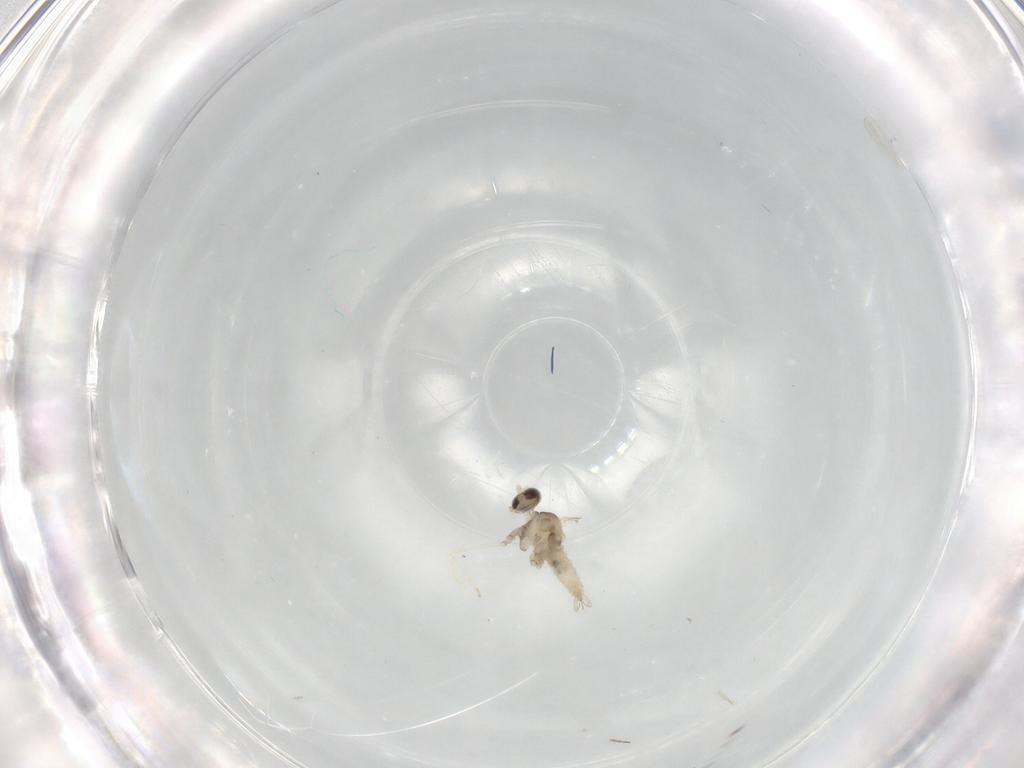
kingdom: Animalia
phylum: Arthropoda
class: Insecta
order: Diptera
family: Cecidomyiidae
